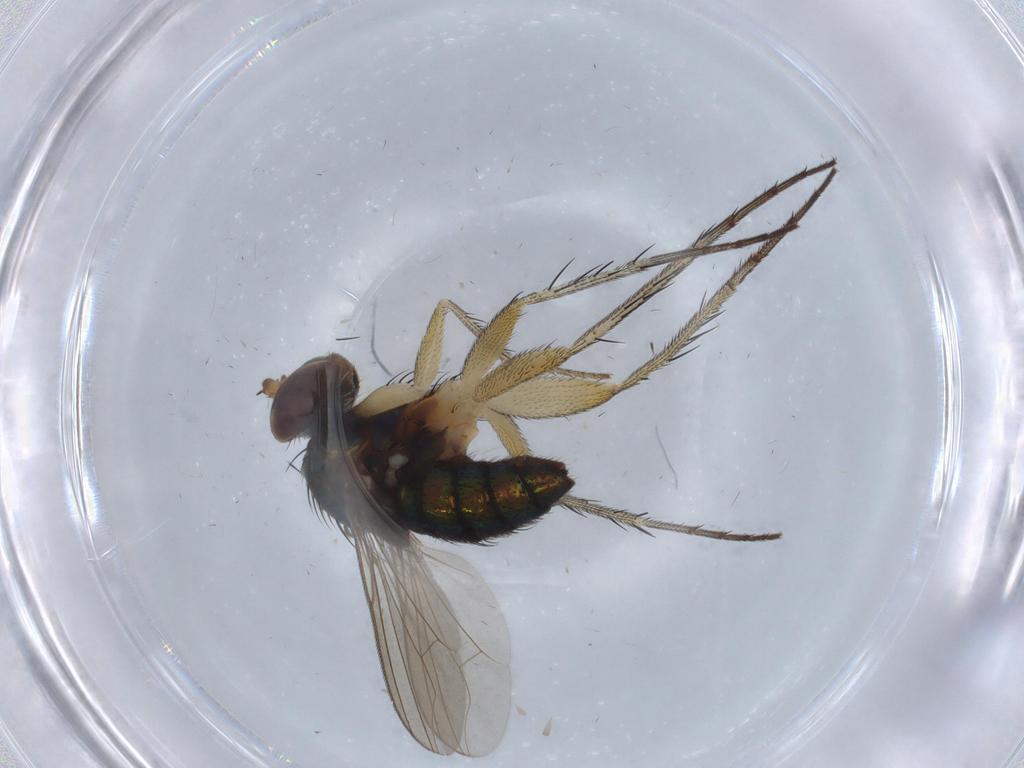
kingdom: Animalia
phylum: Arthropoda
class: Insecta
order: Diptera
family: Dolichopodidae
